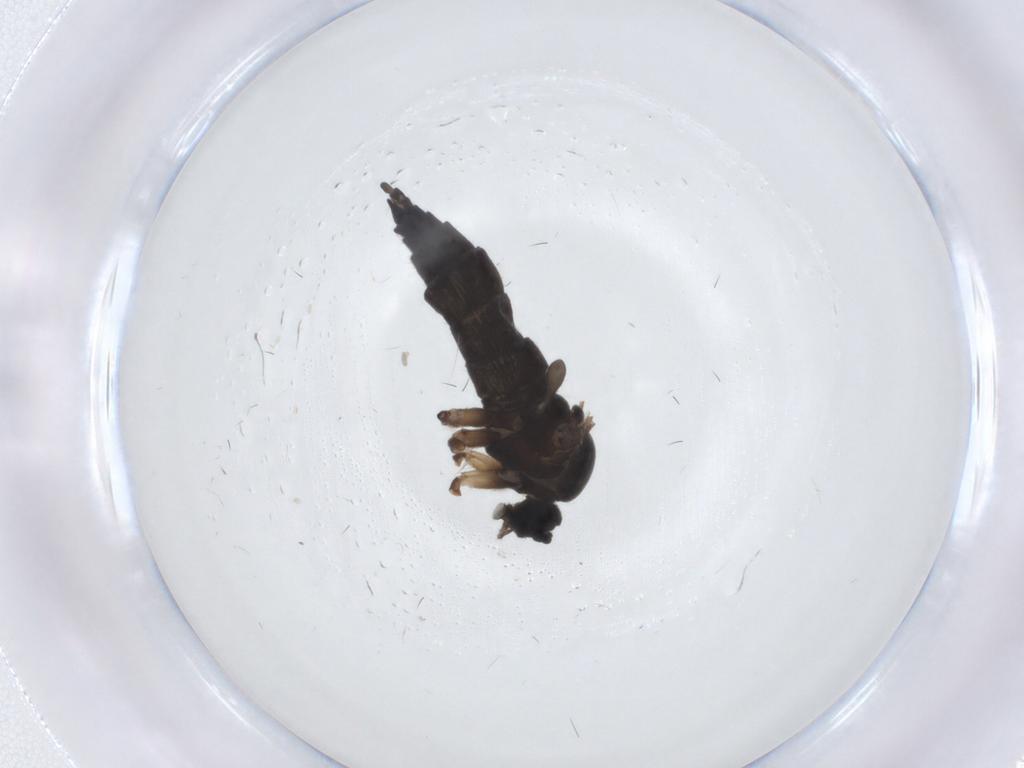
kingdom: Animalia
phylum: Arthropoda
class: Insecta
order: Diptera
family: Sciaridae
